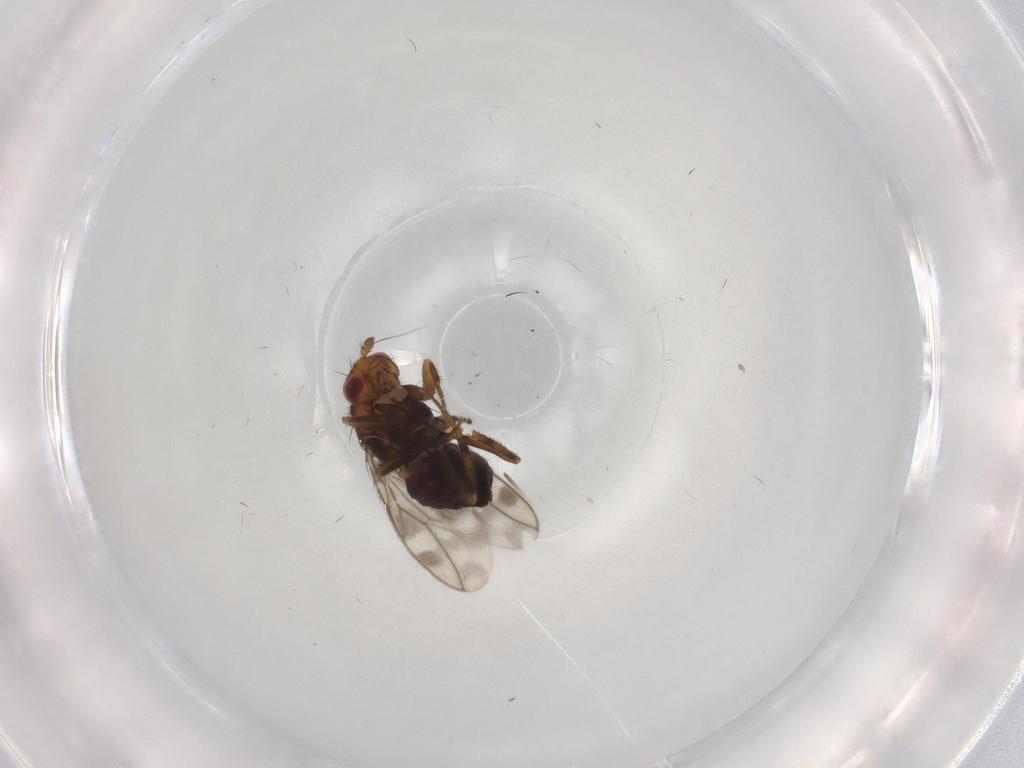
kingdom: Animalia
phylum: Arthropoda
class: Insecta
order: Diptera
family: Sphaeroceridae
